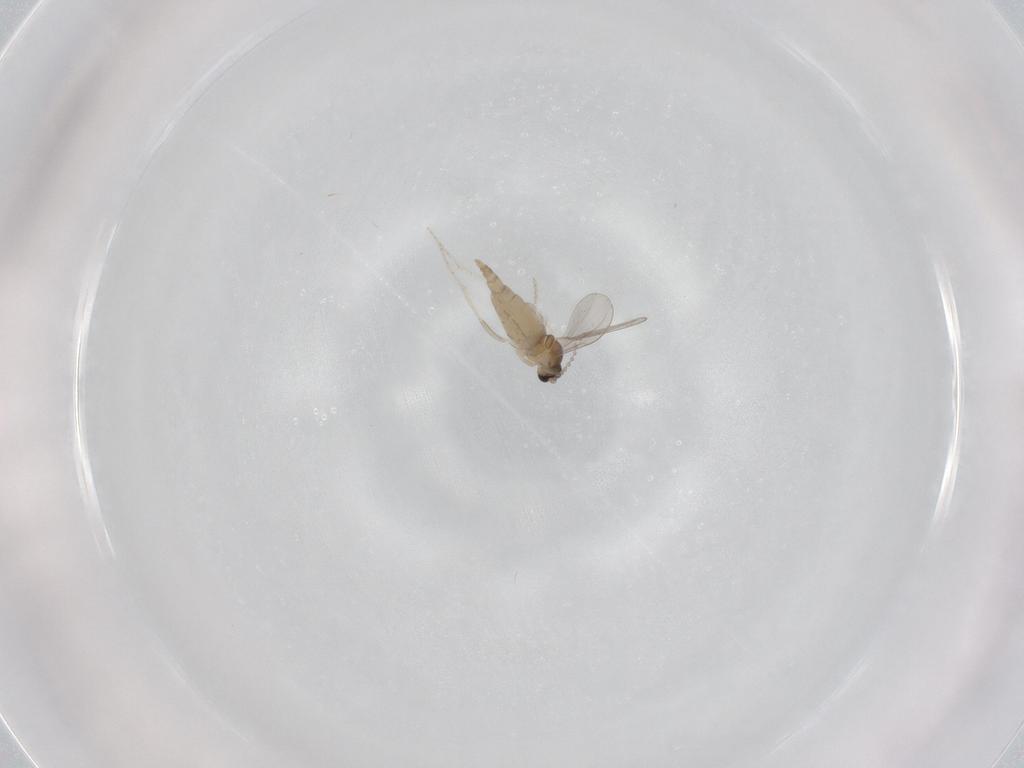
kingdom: Animalia
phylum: Arthropoda
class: Insecta
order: Diptera
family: Cecidomyiidae
